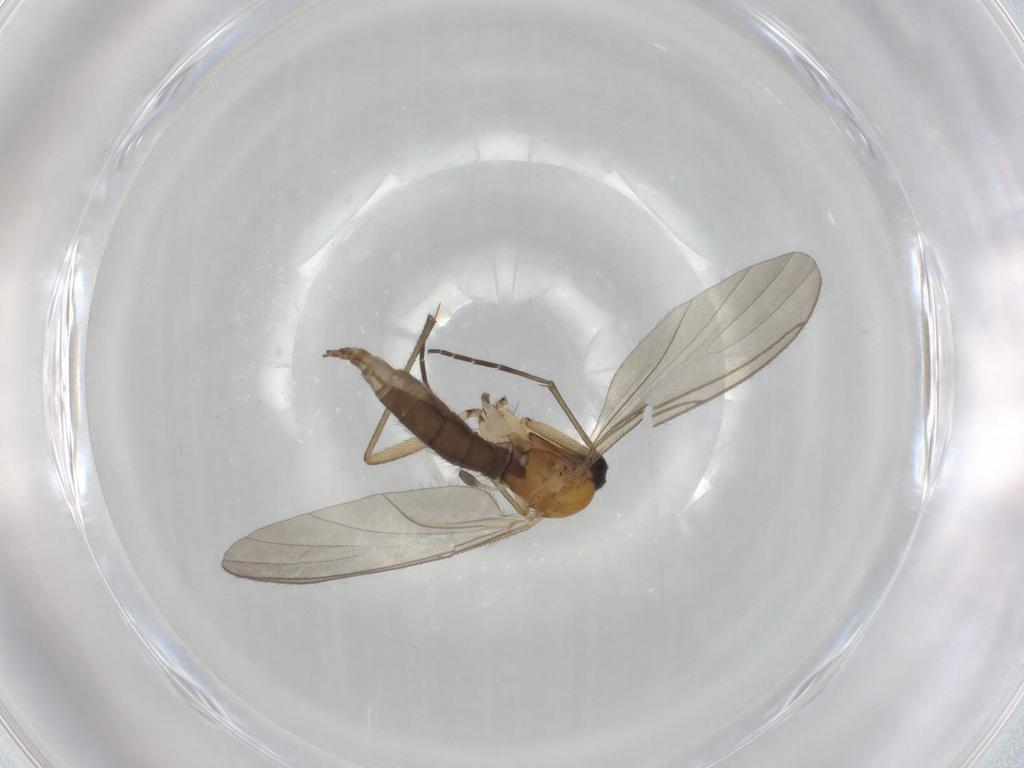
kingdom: Animalia
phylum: Arthropoda
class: Insecta
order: Diptera
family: Sciaridae
